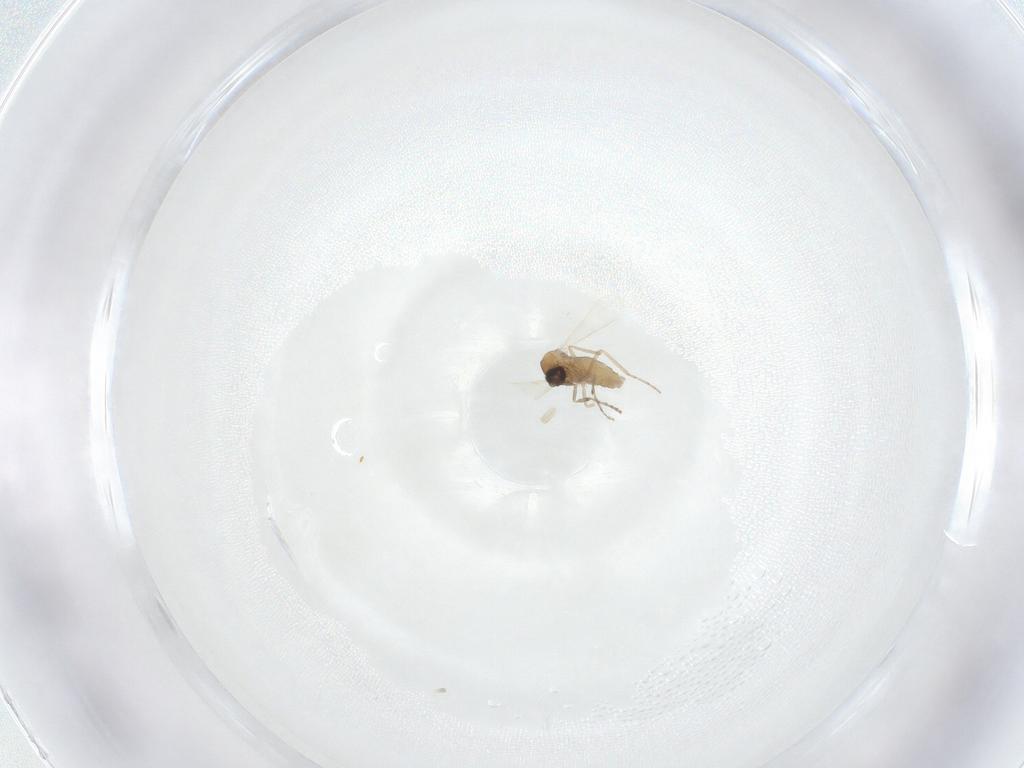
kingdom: Animalia
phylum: Arthropoda
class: Insecta
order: Diptera
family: Ceratopogonidae
